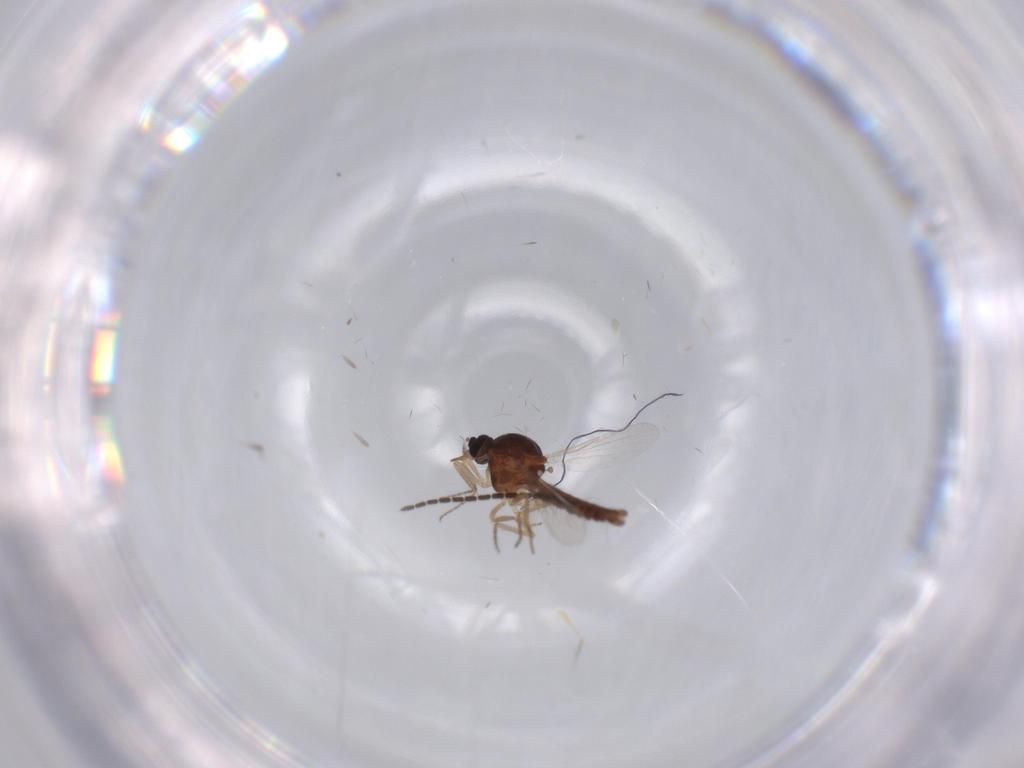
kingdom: Animalia
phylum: Arthropoda
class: Insecta
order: Diptera
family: Ceratopogonidae
